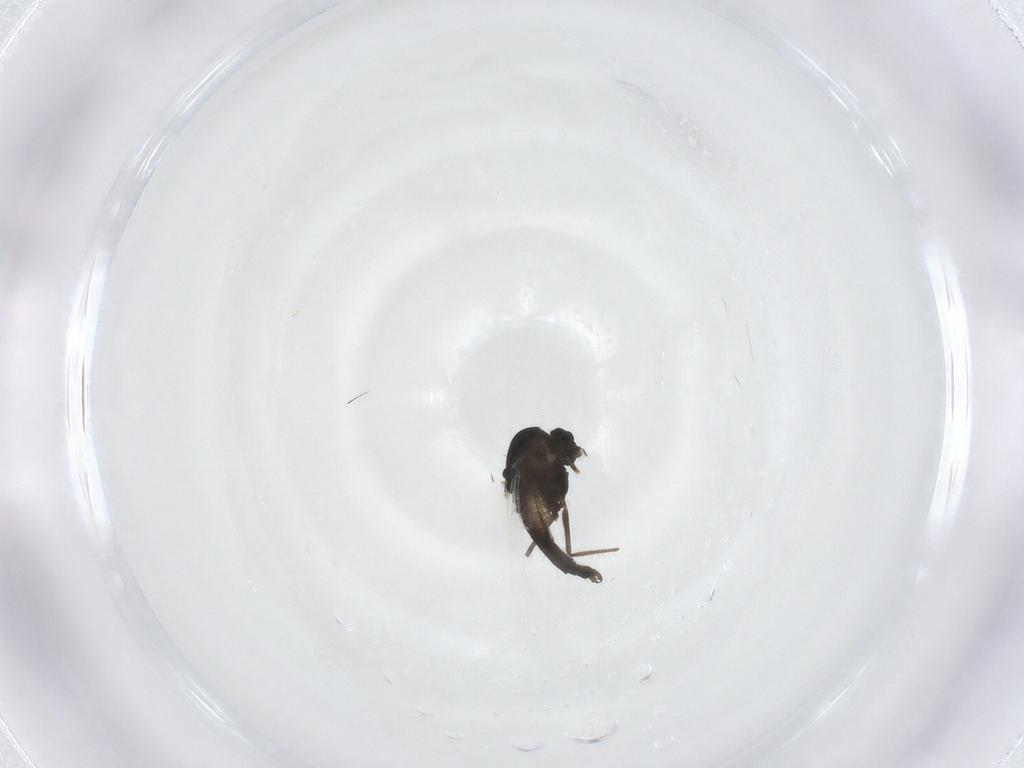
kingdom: Animalia
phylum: Arthropoda
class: Insecta
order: Diptera
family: Chironomidae
